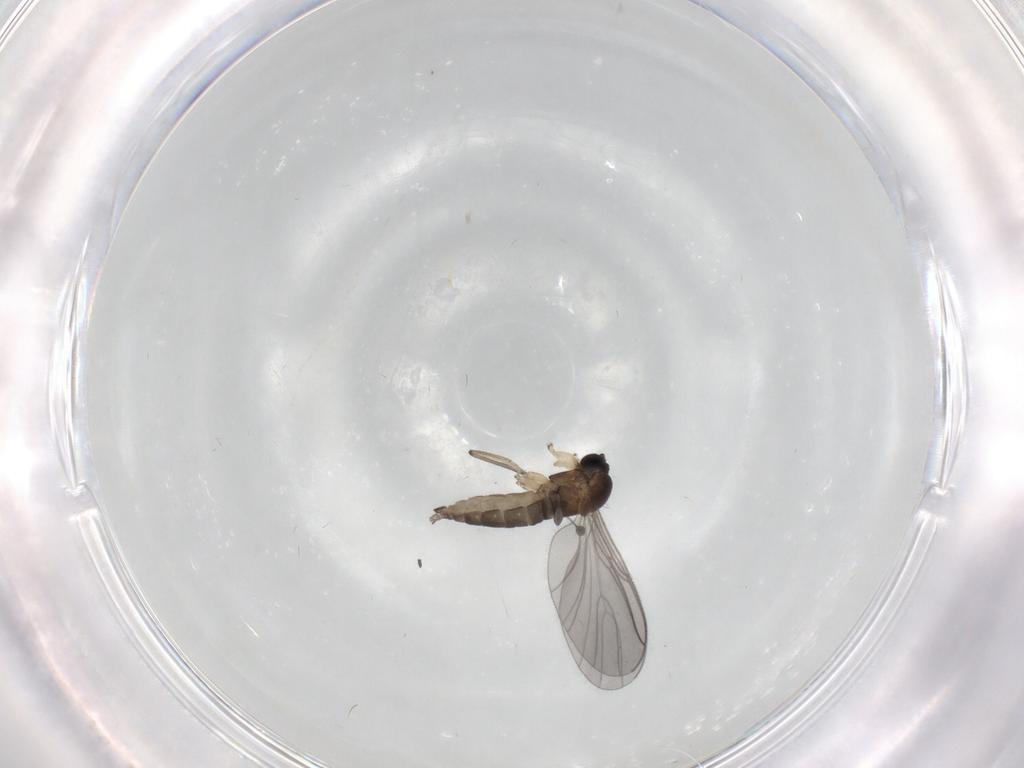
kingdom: Animalia
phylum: Arthropoda
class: Insecta
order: Diptera
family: Sciaridae
